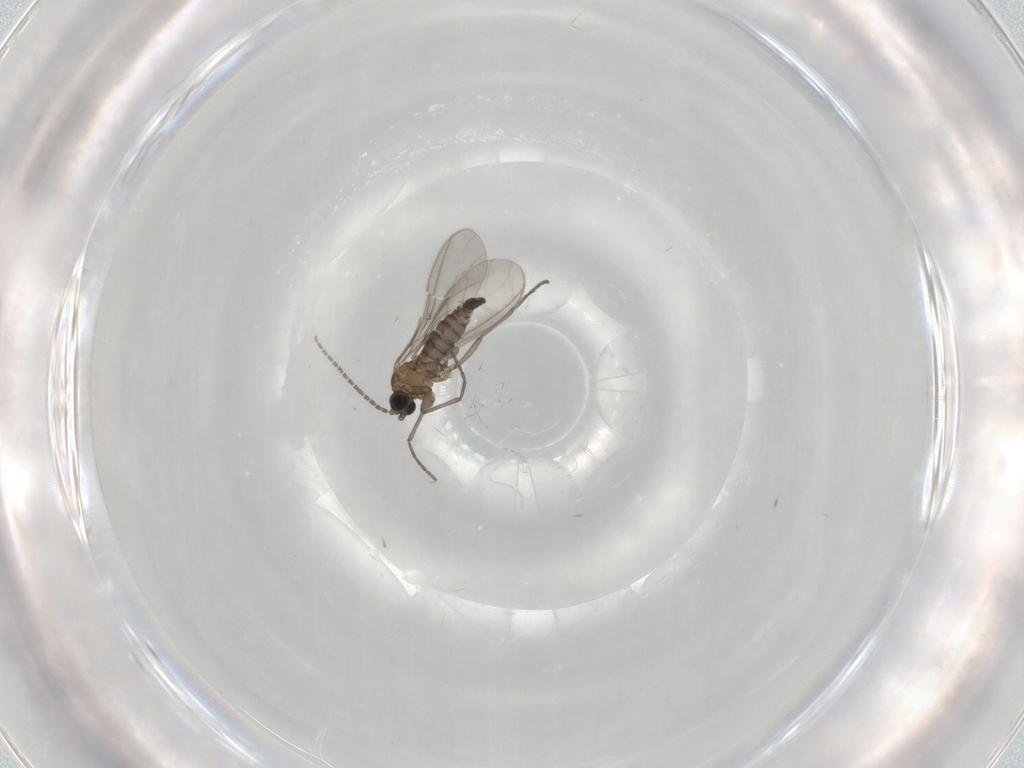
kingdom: Animalia
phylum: Arthropoda
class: Insecta
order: Diptera
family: Sciaridae
